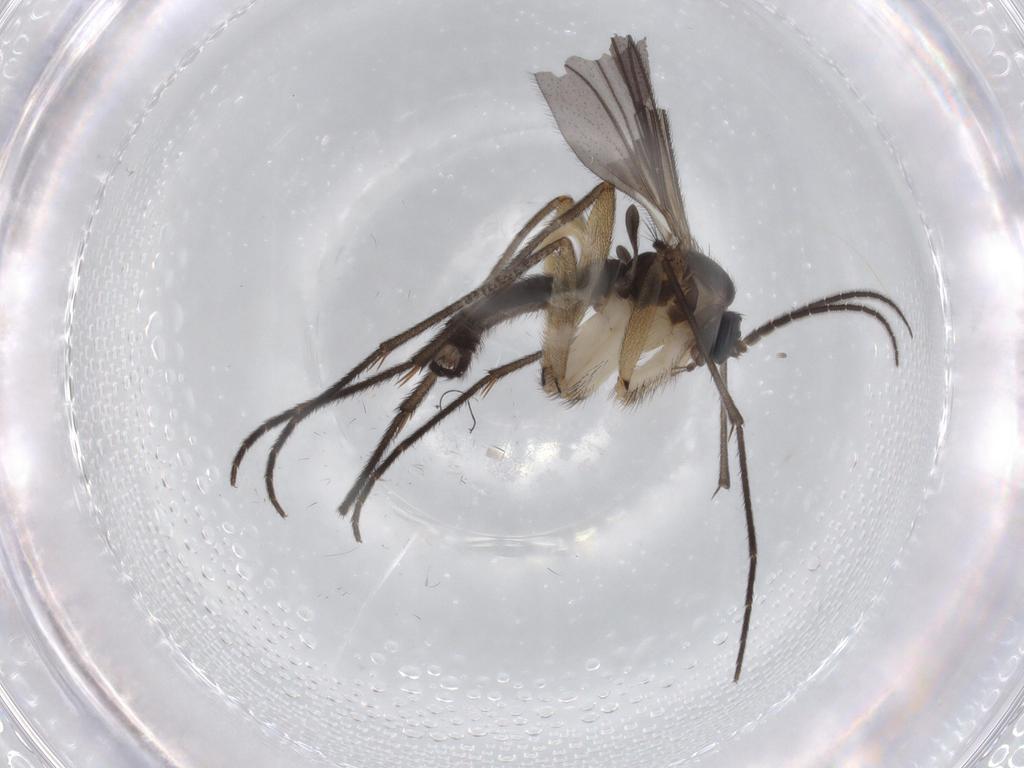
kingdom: Animalia
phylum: Arthropoda
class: Insecta
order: Diptera
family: Sciaridae
